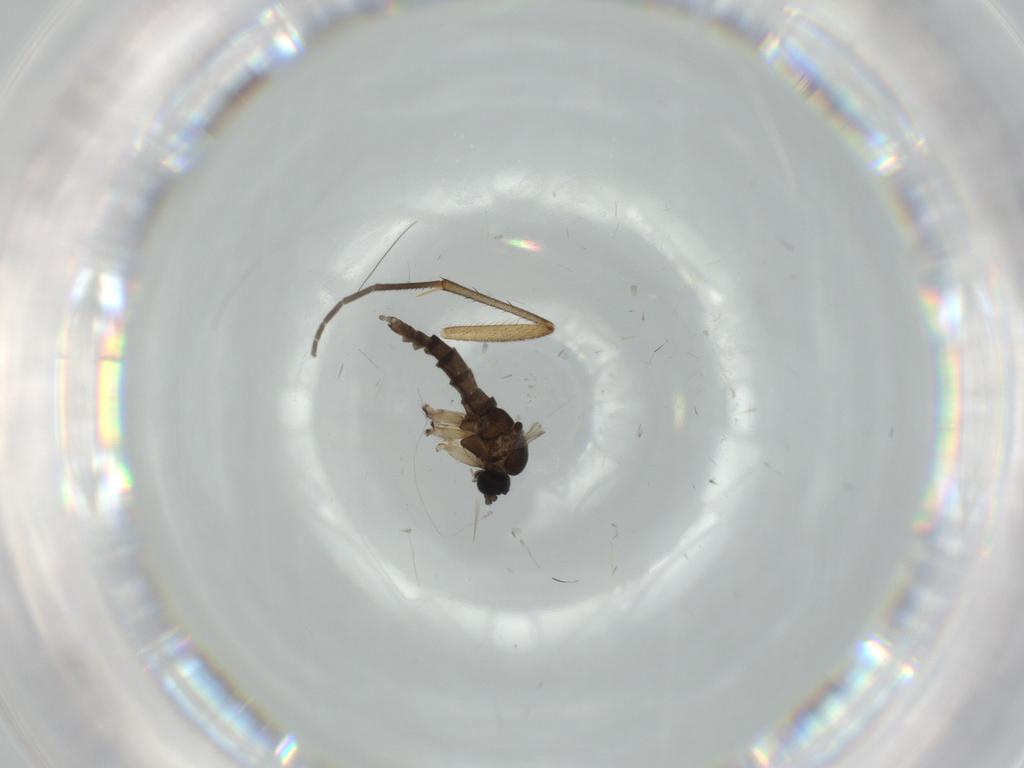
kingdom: Animalia
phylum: Arthropoda
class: Insecta
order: Diptera
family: Sciaridae
